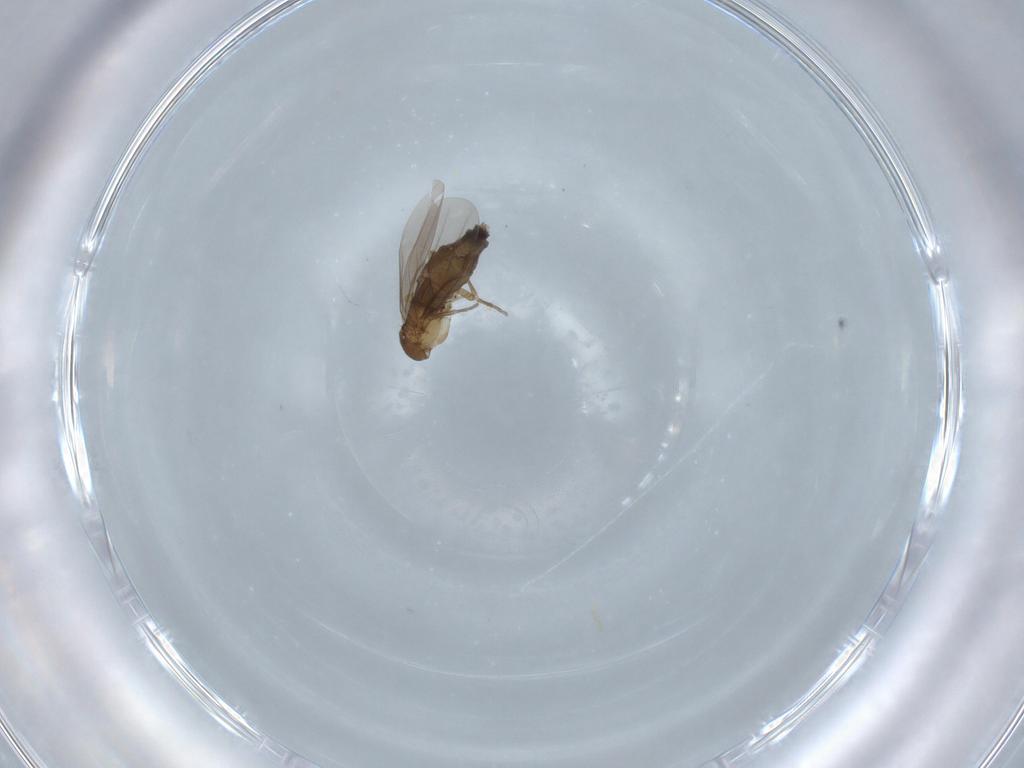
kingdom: Animalia
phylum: Arthropoda
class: Insecta
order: Diptera
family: Phoridae
